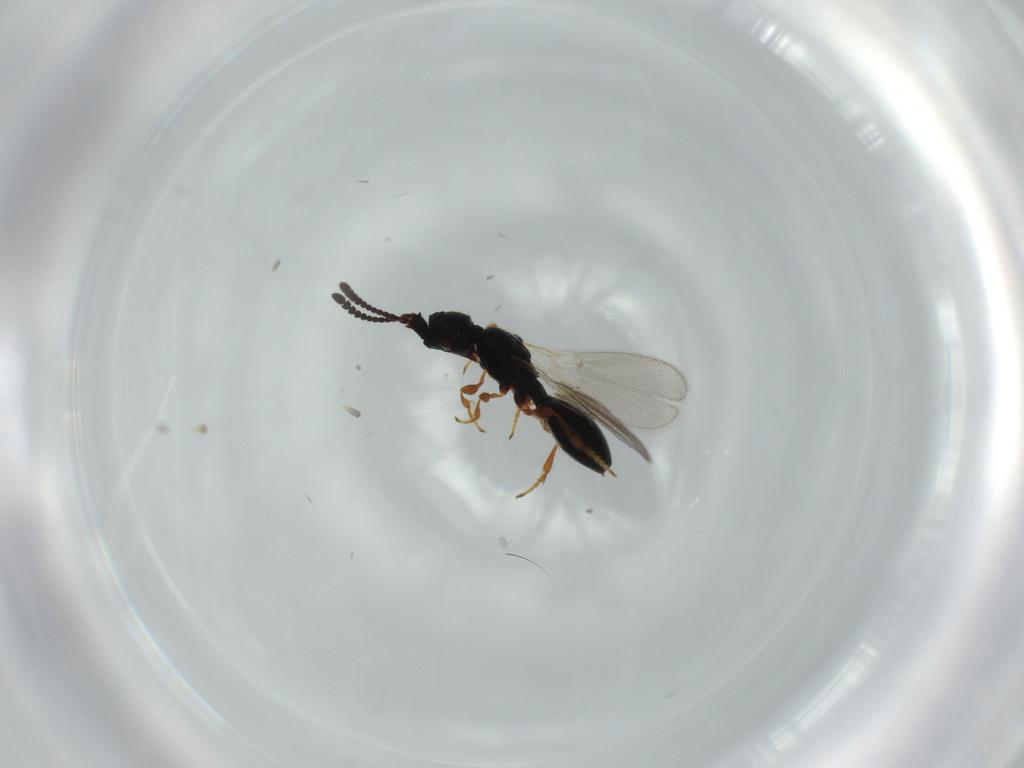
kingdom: Animalia
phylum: Arthropoda
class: Insecta
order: Hymenoptera
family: Diapriidae
